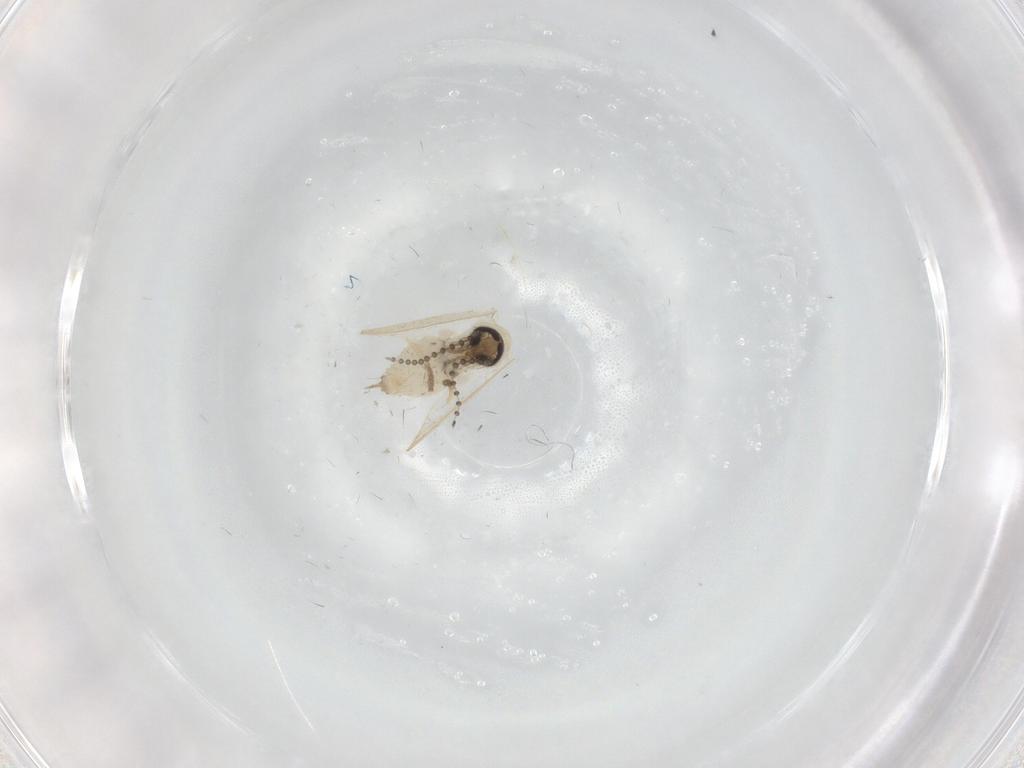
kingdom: Animalia
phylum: Arthropoda
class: Insecta
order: Diptera
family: Psychodidae
